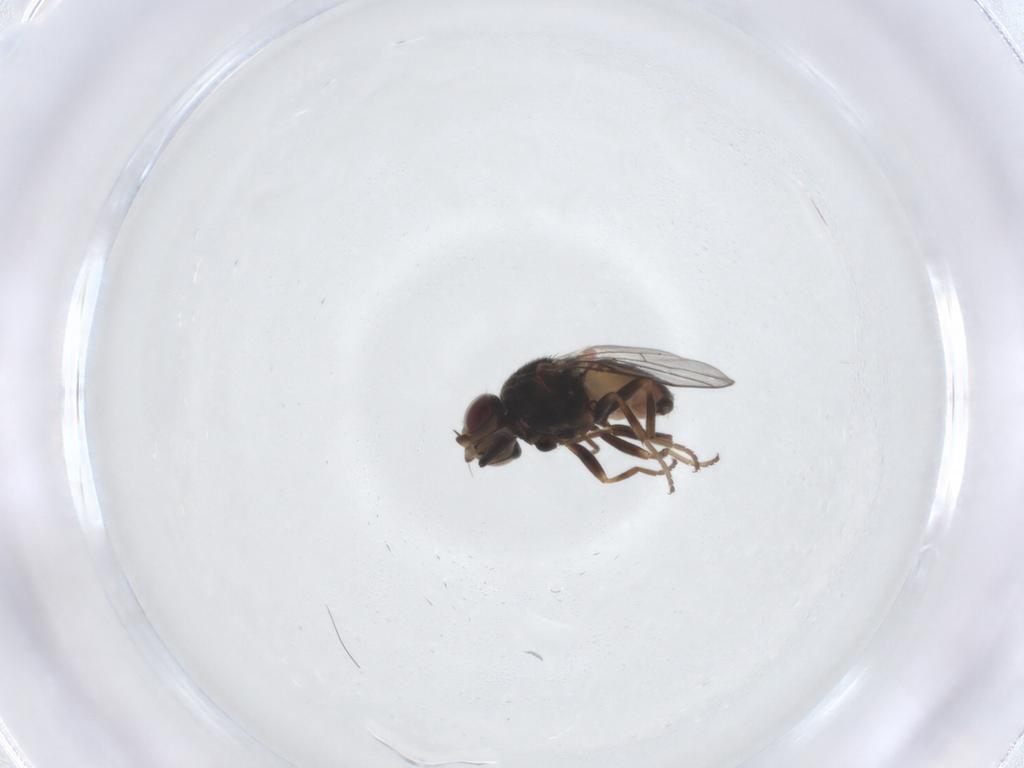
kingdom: Animalia
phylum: Arthropoda
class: Insecta
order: Diptera
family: Chloropidae
